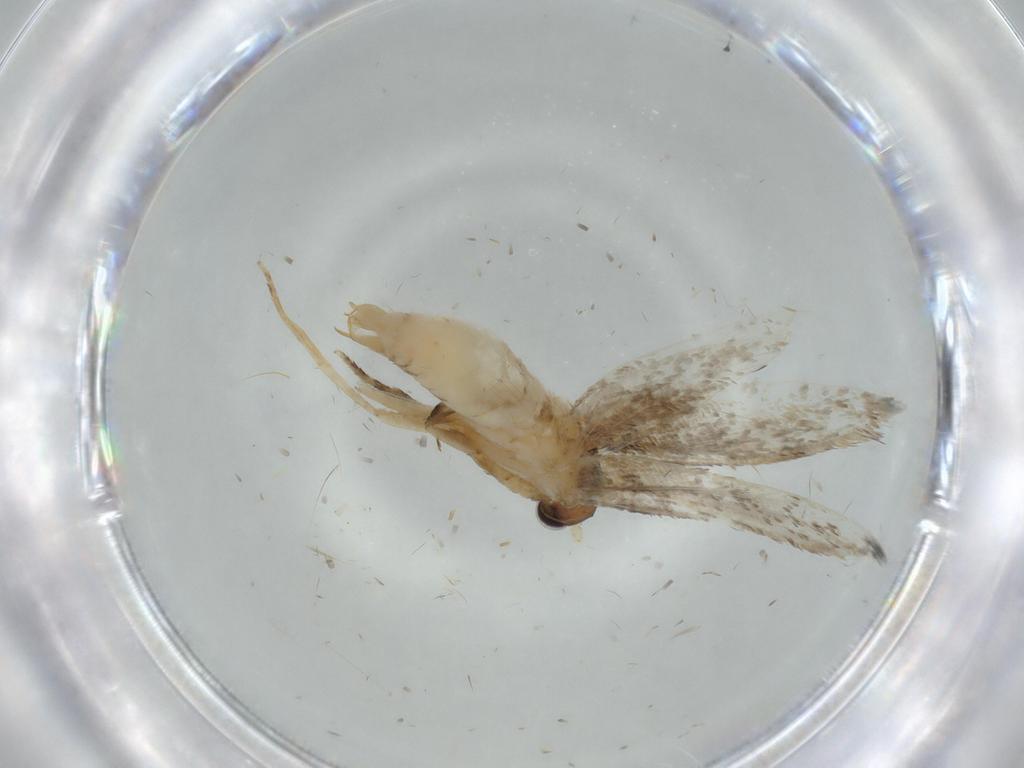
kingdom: Animalia
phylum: Arthropoda
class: Insecta
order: Lepidoptera
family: Tineidae
